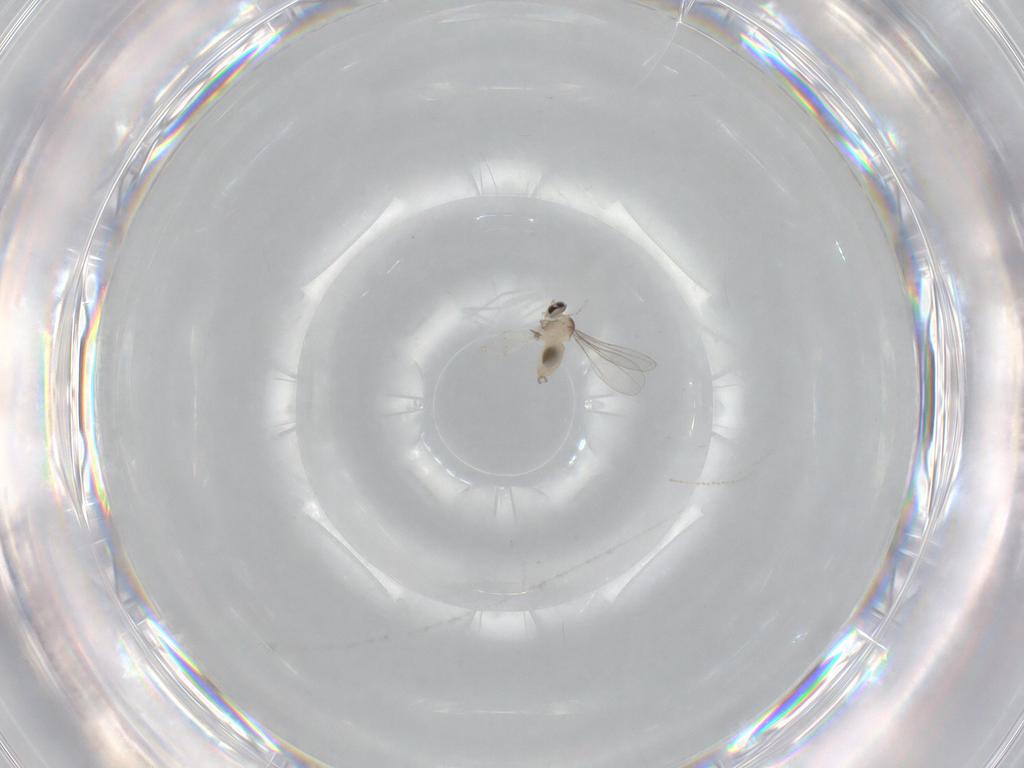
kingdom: Animalia
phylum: Arthropoda
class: Insecta
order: Diptera
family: Cecidomyiidae
